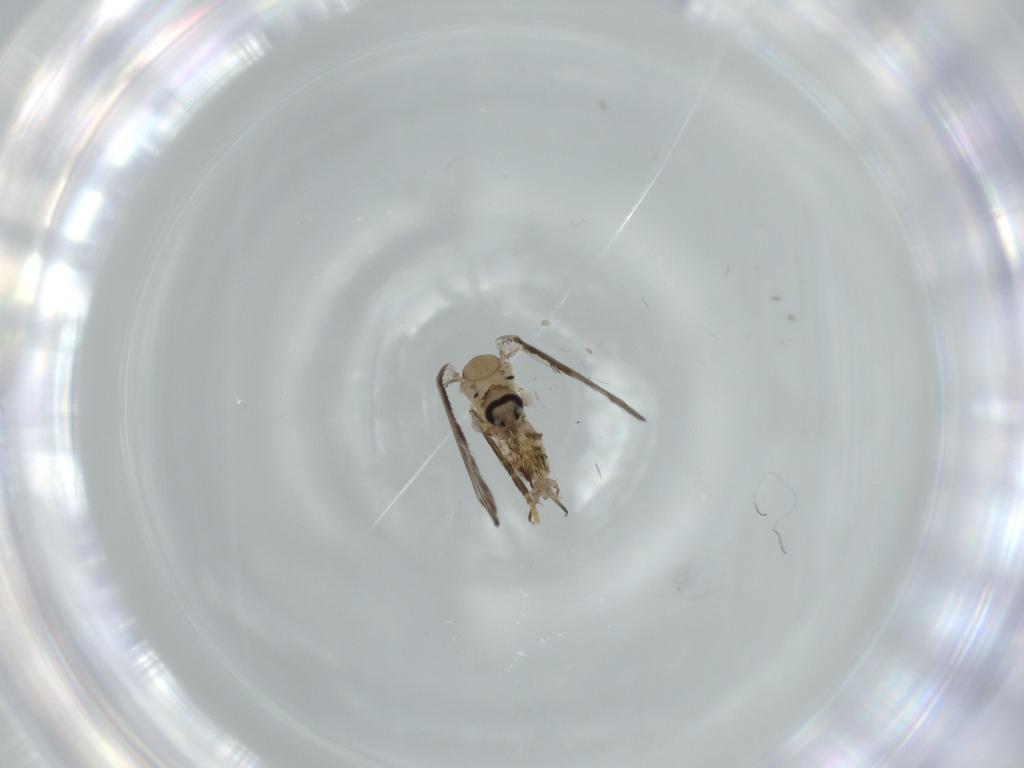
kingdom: Animalia
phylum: Arthropoda
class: Insecta
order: Diptera
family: Psychodidae
